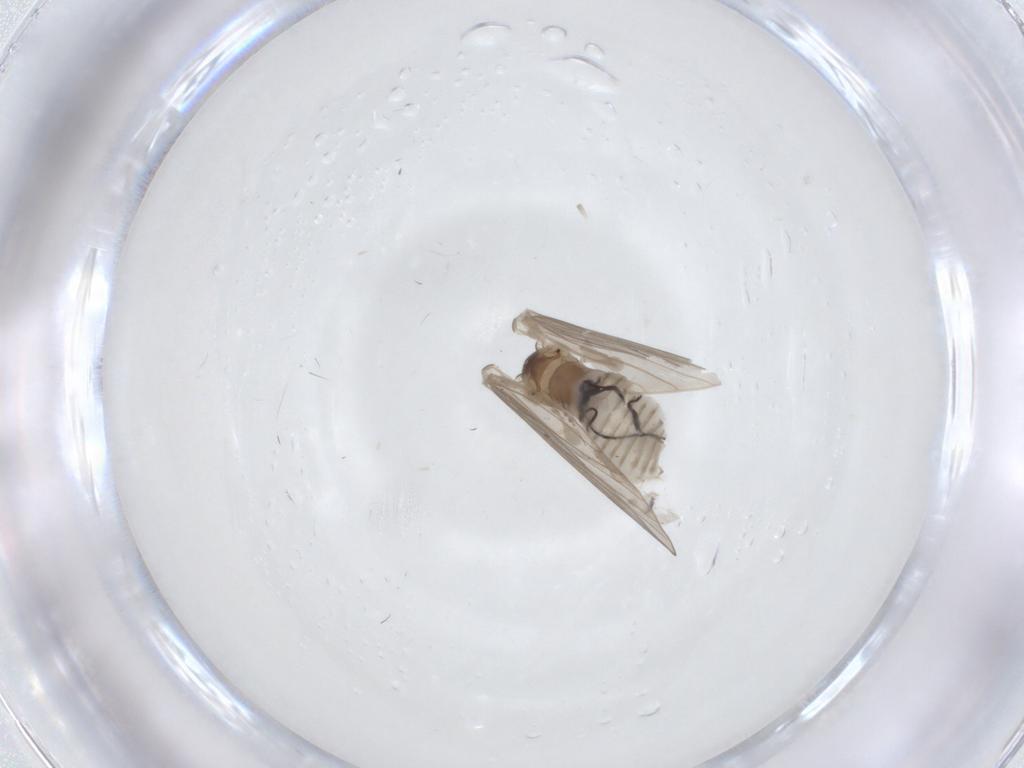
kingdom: Animalia
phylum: Arthropoda
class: Insecta
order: Diptera
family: Psychodidae
